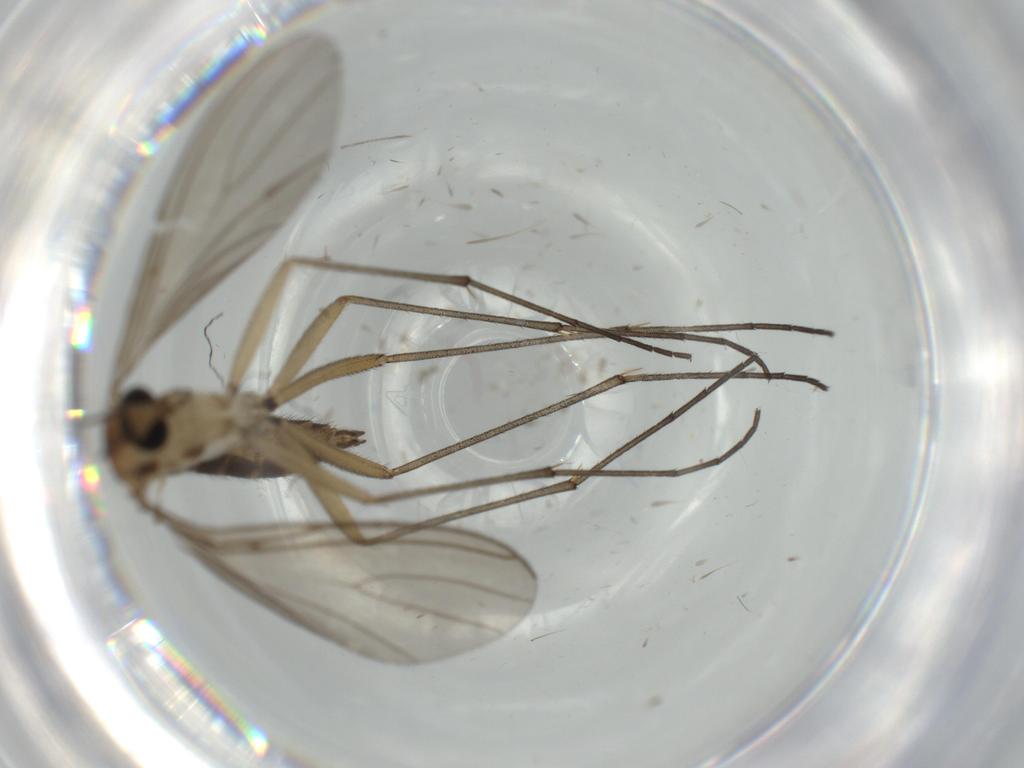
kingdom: Animalia
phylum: Arthropoda
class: Insecta
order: Diptera
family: Sciaridae
